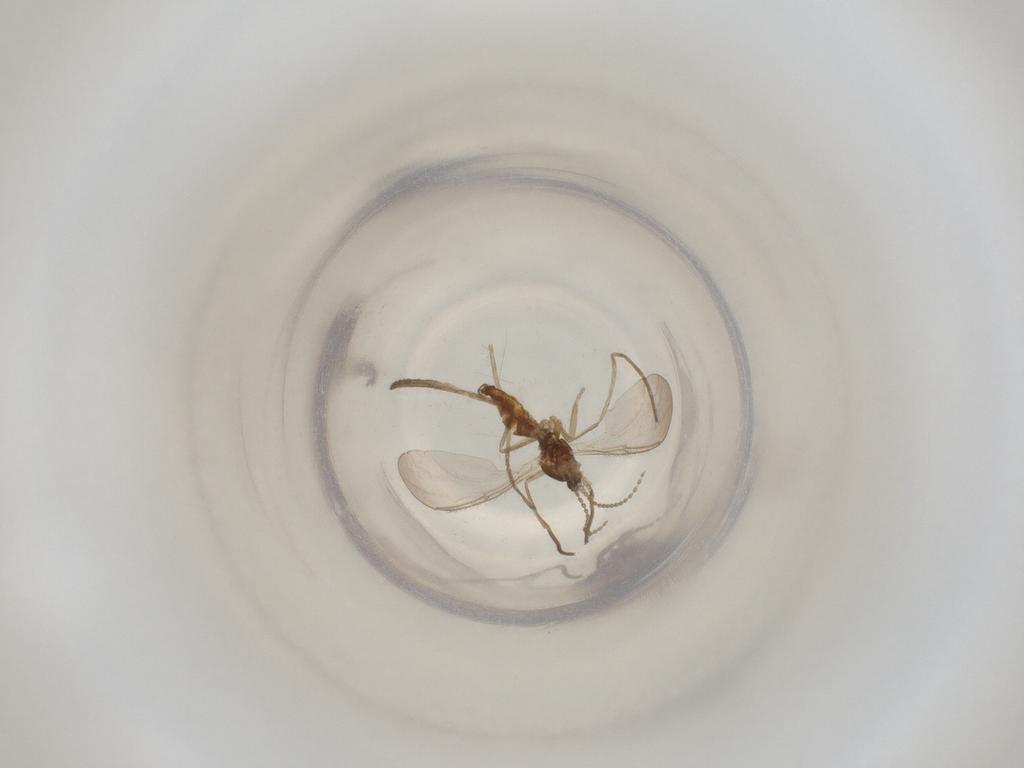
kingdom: Animalia
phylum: Arthropoda
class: Insecta
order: Diptera
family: Cecidomyiidae
